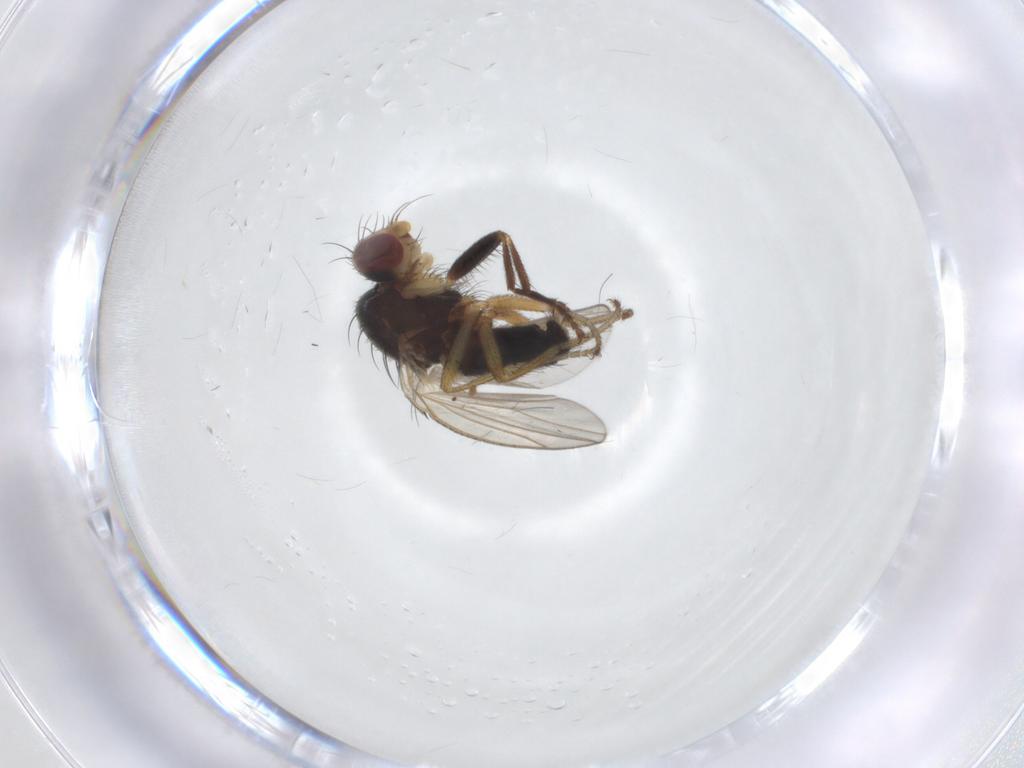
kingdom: Animalia
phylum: Arthropoda
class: Insecta
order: Diptera
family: Heleomyzidae
